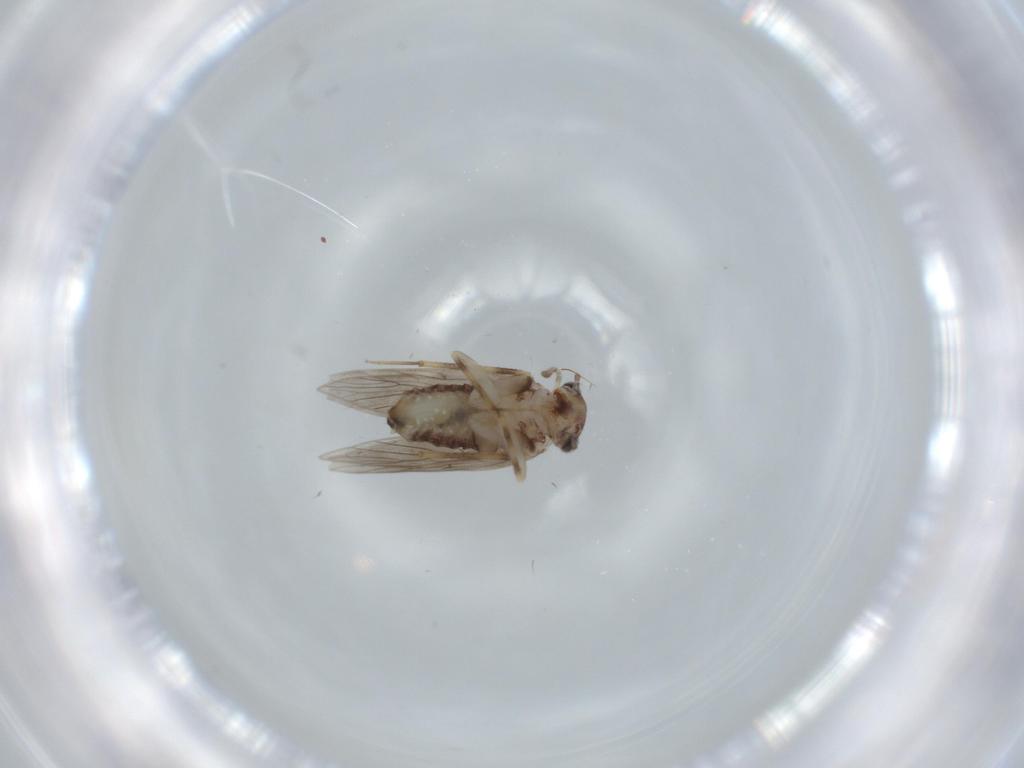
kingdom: Animalia
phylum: Arthropoda
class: Insecta
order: Psocodea
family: Lepidopsocidae
